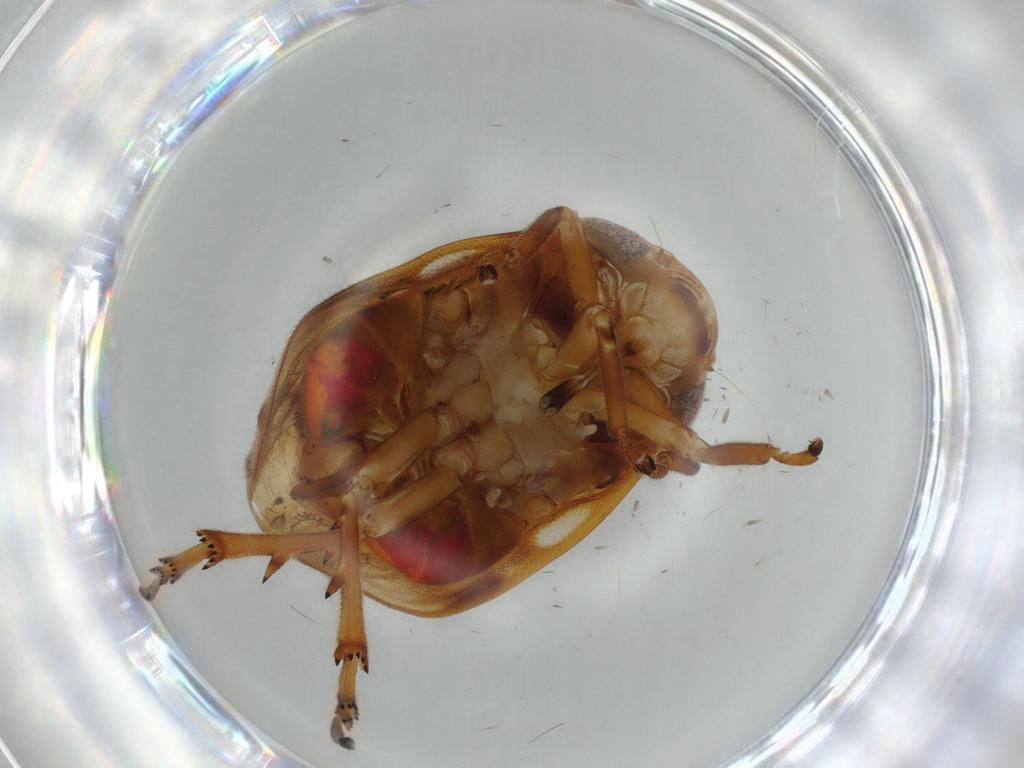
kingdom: Animalia
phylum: Arthropoda
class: Insecta
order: Hemiptera
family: Clastopteridae
